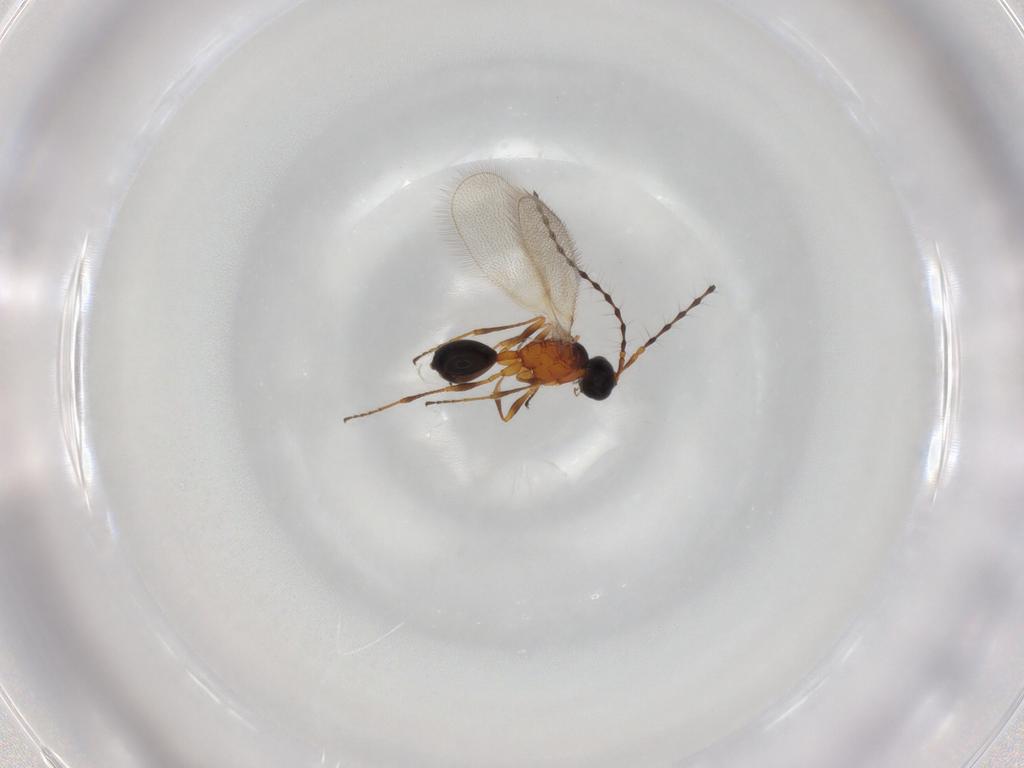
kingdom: Animalia
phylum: Arthropoda
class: Insecta
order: Hymenoptera
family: Diapriidae
